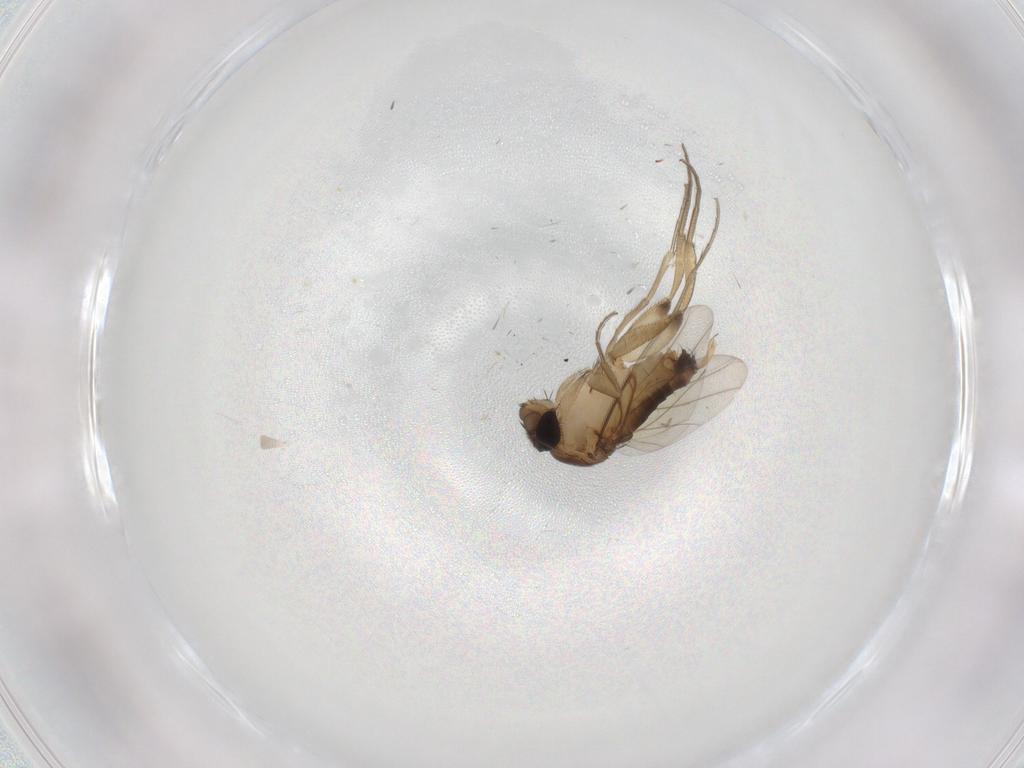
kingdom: Animalia
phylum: Arthropoda
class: Insecta
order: Diptera
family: Phoridae
